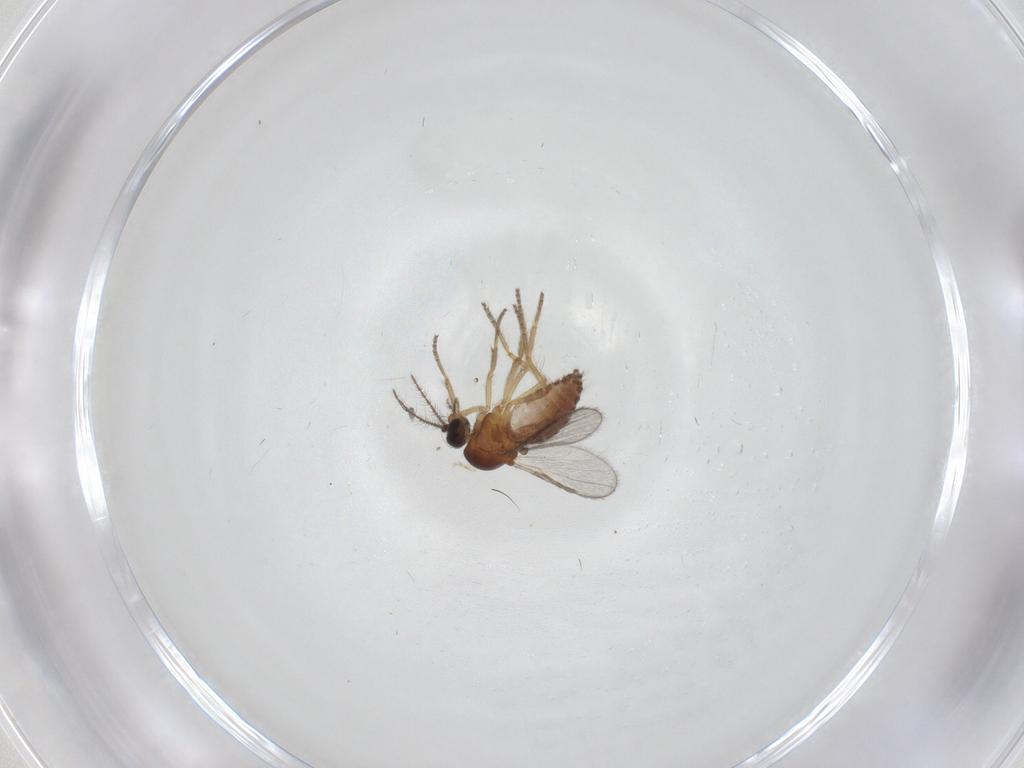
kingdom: Animalia
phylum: Arthropoda
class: Insecta
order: Diptera
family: Ceratopogonidae
